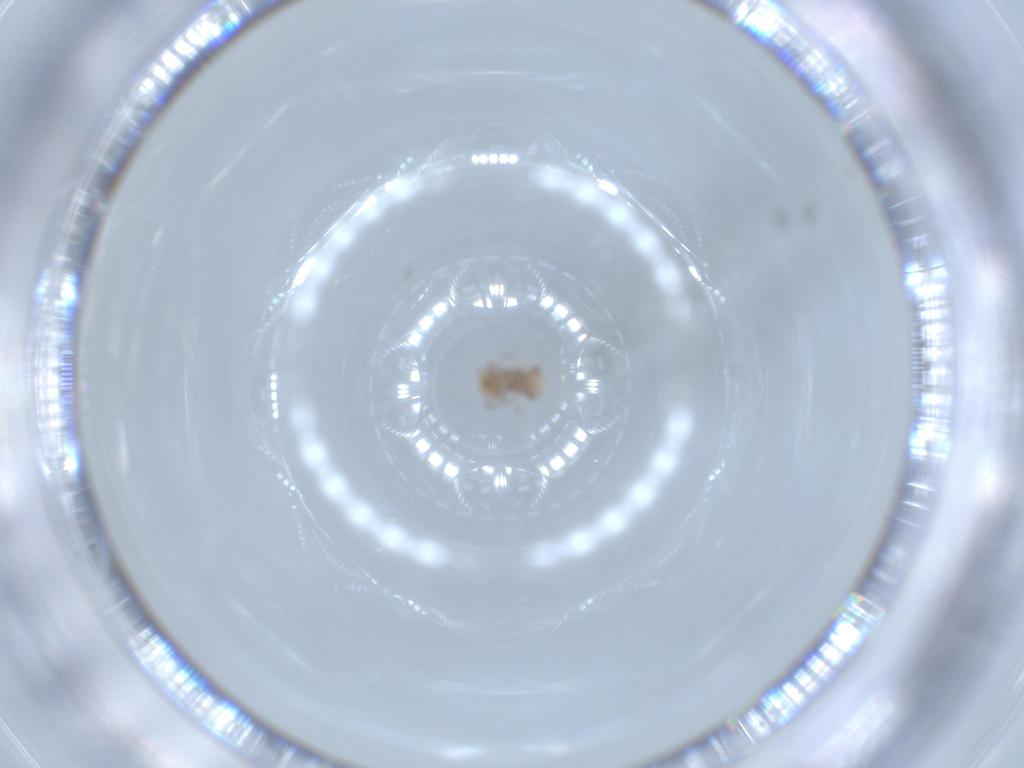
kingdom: Animalia
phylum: Arthropoda
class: Insecta
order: Psocodea
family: Ectopsocidae
